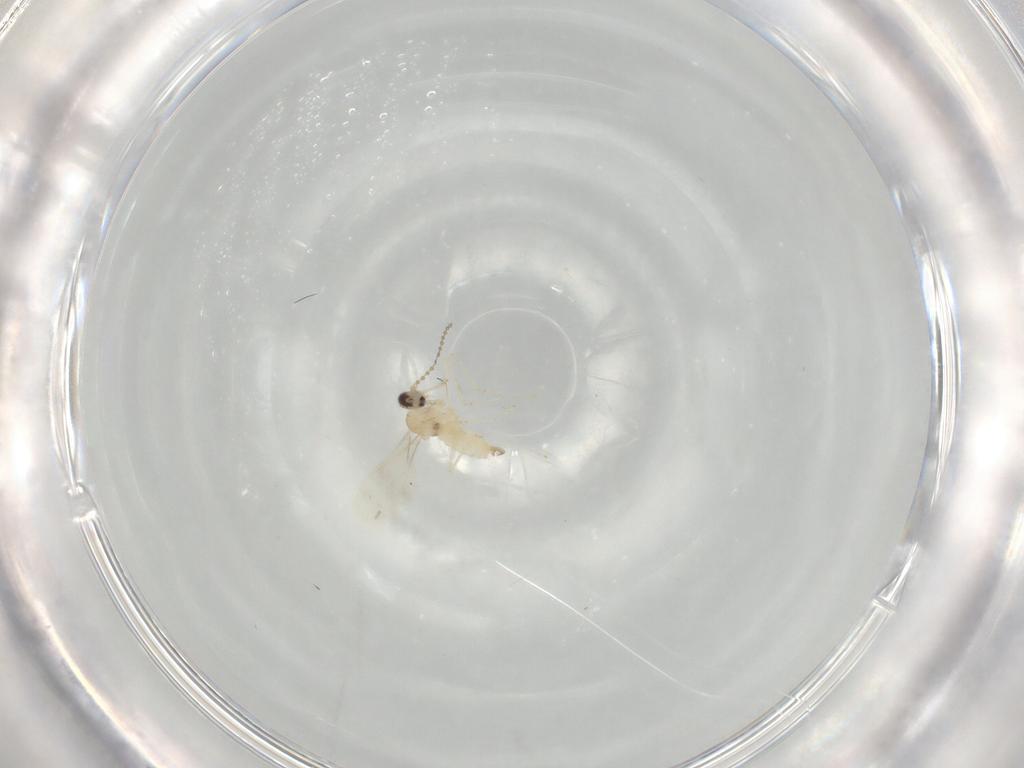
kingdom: Animalia
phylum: Arthropoda
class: Insecta
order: Diptera
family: Cecidomyiidae
